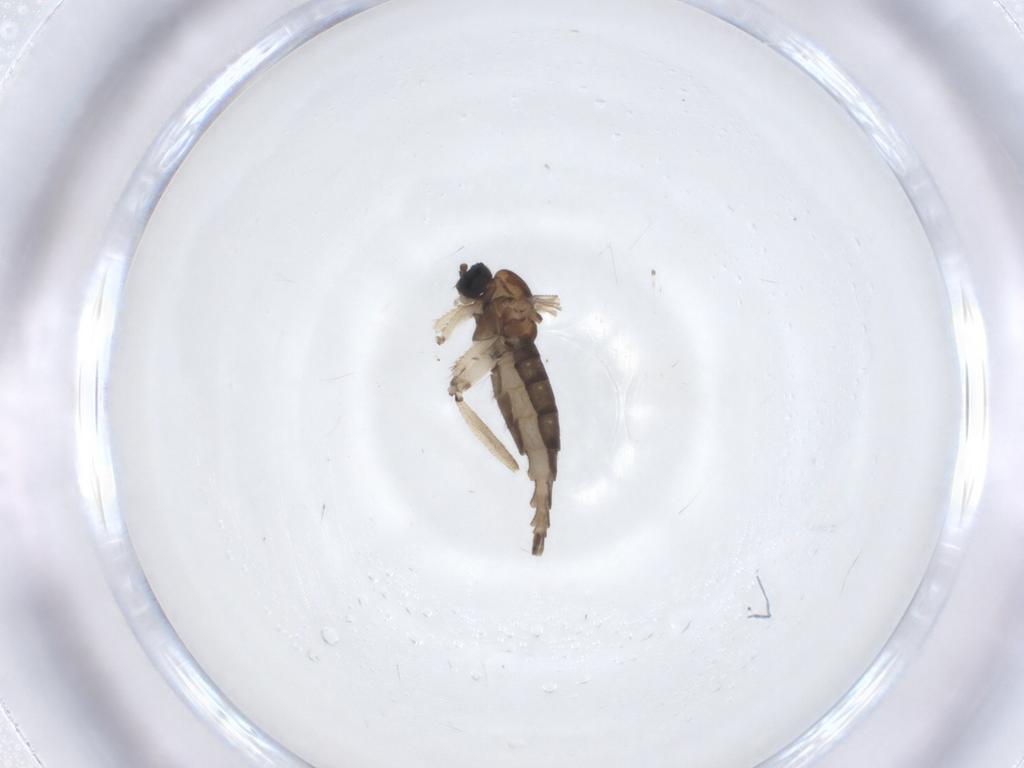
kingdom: Animalia
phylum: Arthropoda
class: Insecta
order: Diptera
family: Sciaridae
